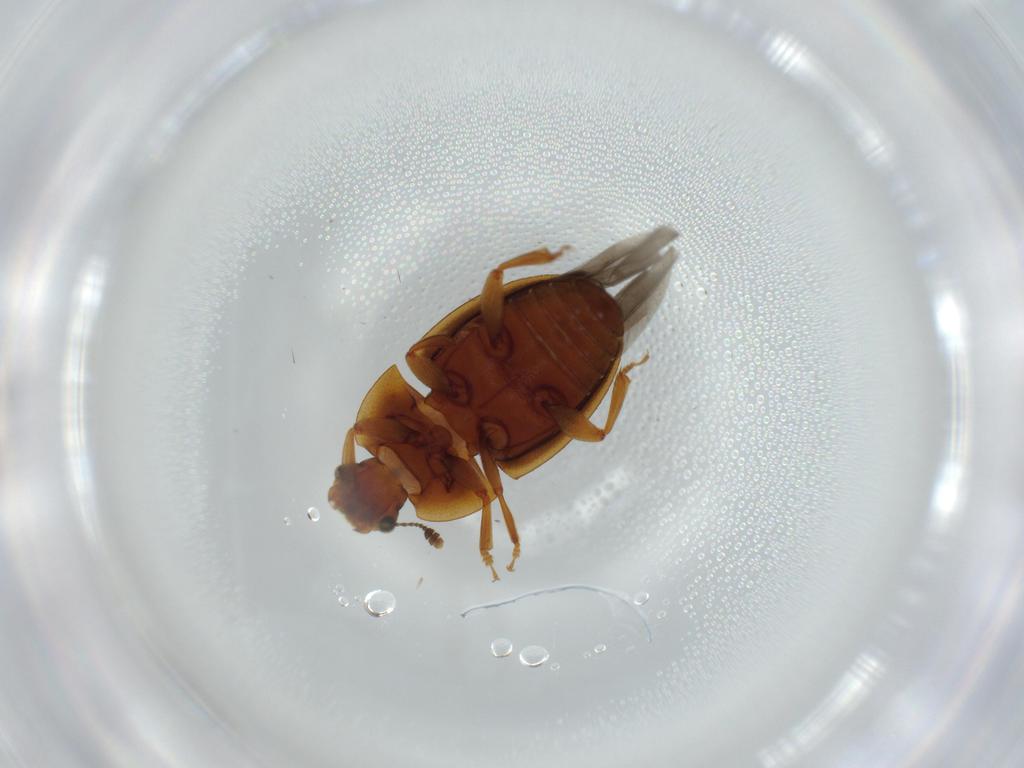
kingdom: Animalia
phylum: Arthropoda
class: Insecta
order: Coleoptera
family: Nitidulidae
